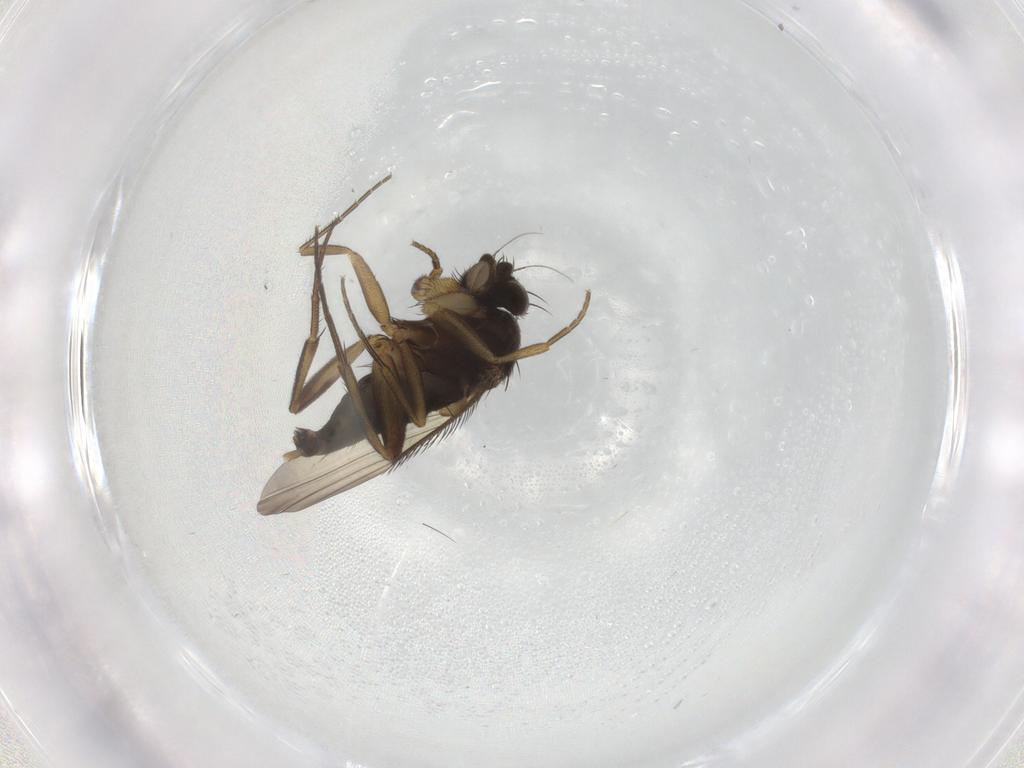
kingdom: Animalia
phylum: Arthropoda
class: Insecta
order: Diptera
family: Phoridae
